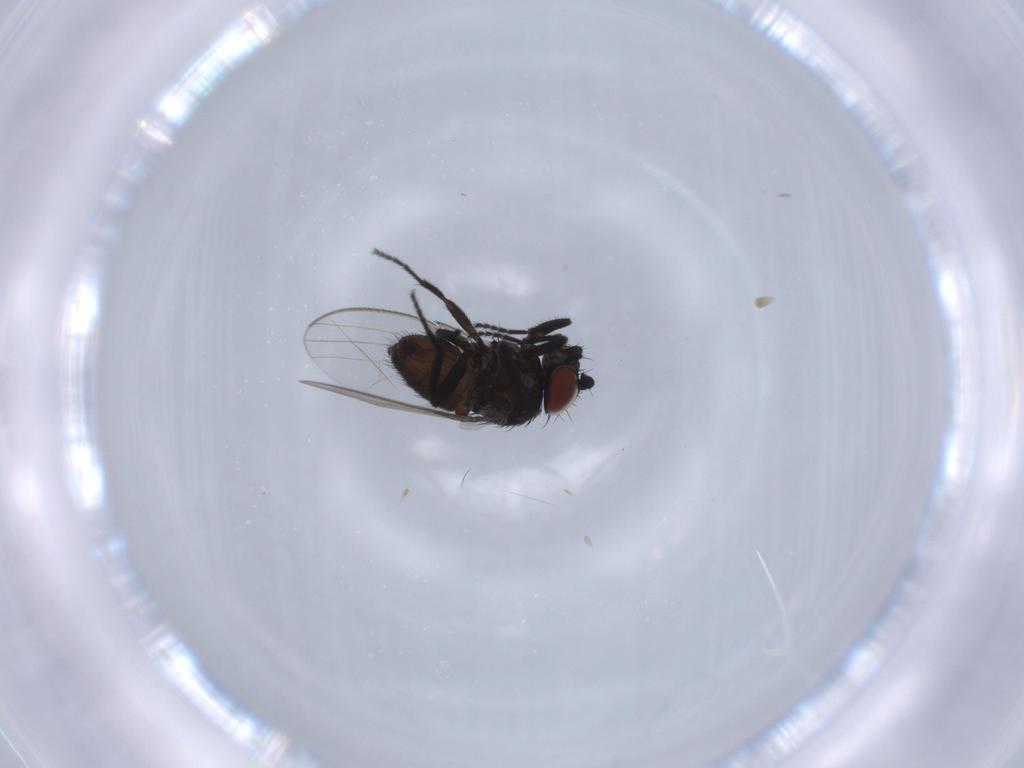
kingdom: Animalia
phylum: Arthropoda
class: Insecta
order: Diptera
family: Milichiidae
